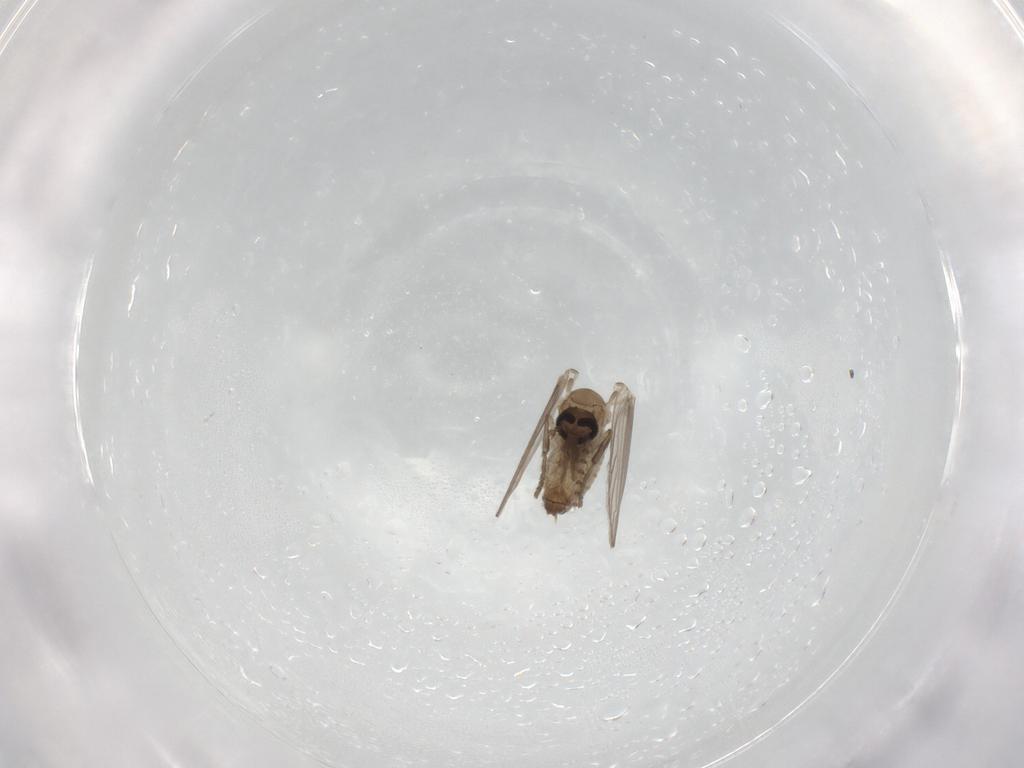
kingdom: Animalia
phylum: Arthropoda
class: Insecta
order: Diptera
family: Psychodidae
